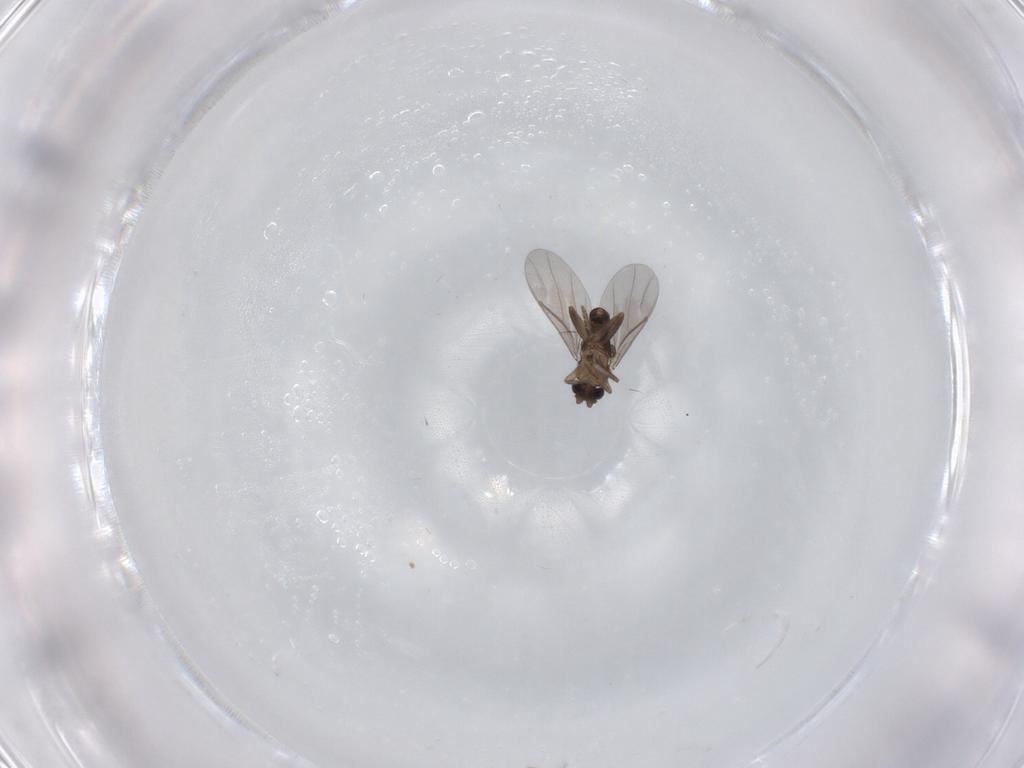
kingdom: Animalia
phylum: Arthropoda
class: Insecta
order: Diptera
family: Phoridae
